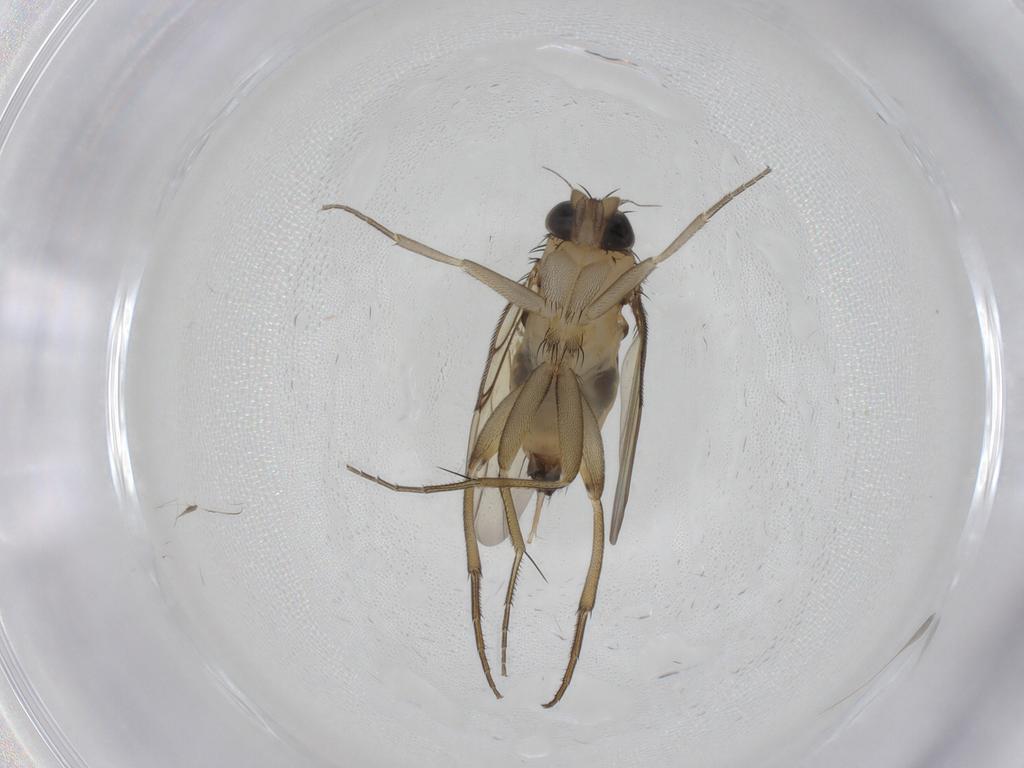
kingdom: Animalia
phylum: Arthropoda
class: Insecta
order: Diptera
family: Phoridae
